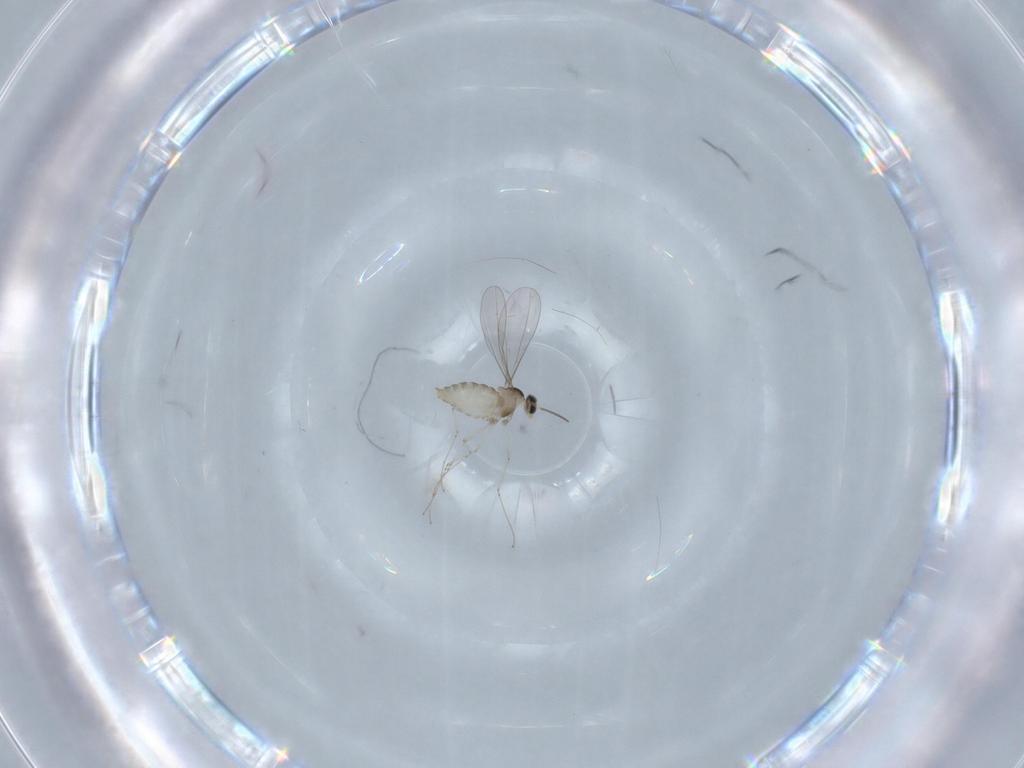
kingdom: Animalia
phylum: Arthropoda
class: Insecta
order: Diptera
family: Cecidomyiidae
